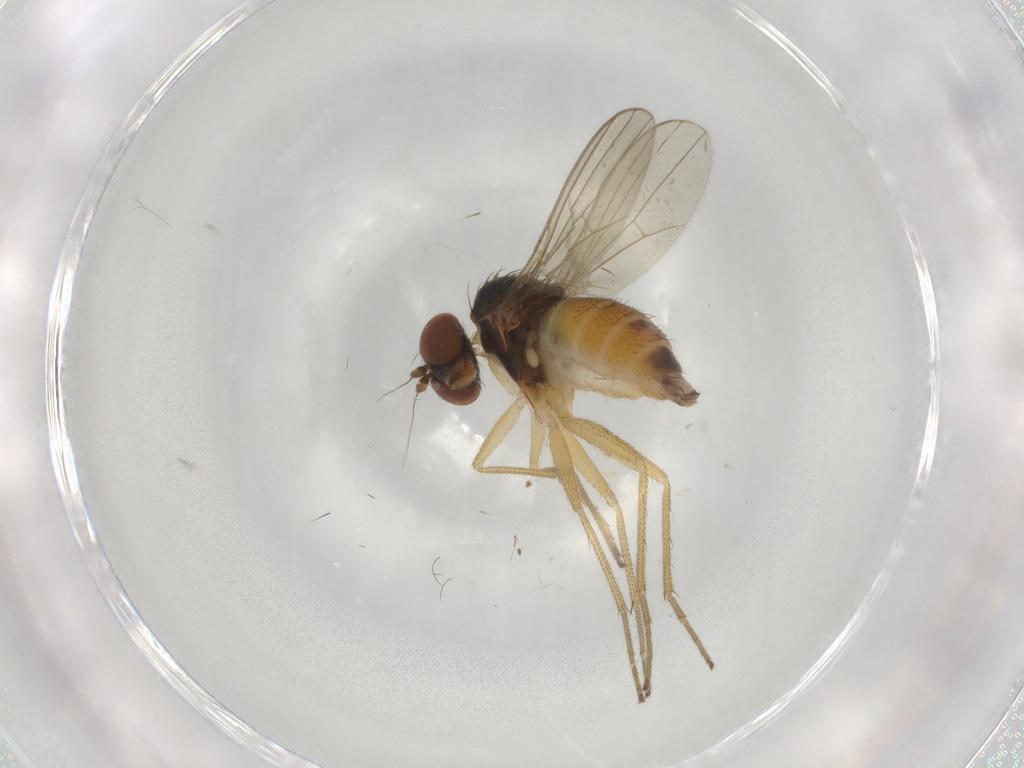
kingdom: Animalia
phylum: Arthropoda
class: Insecta
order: Diptera
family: Dolichopodidae
